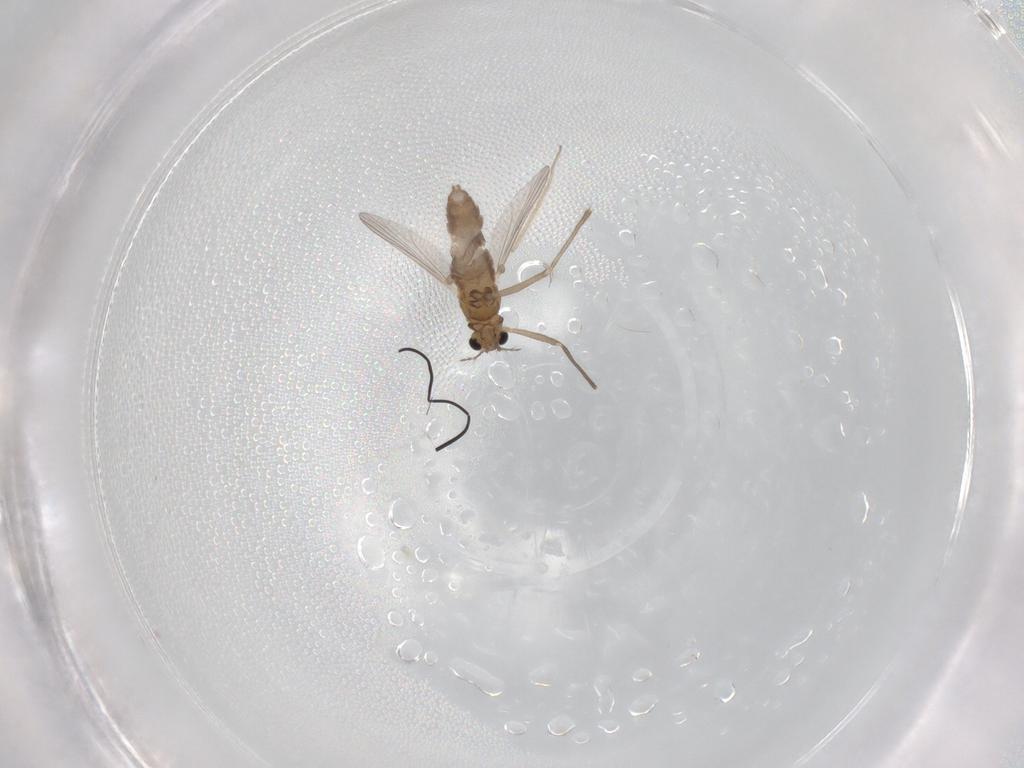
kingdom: Animalia
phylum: Arthropoda
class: Insecta
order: Diptera
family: Chironomidae
